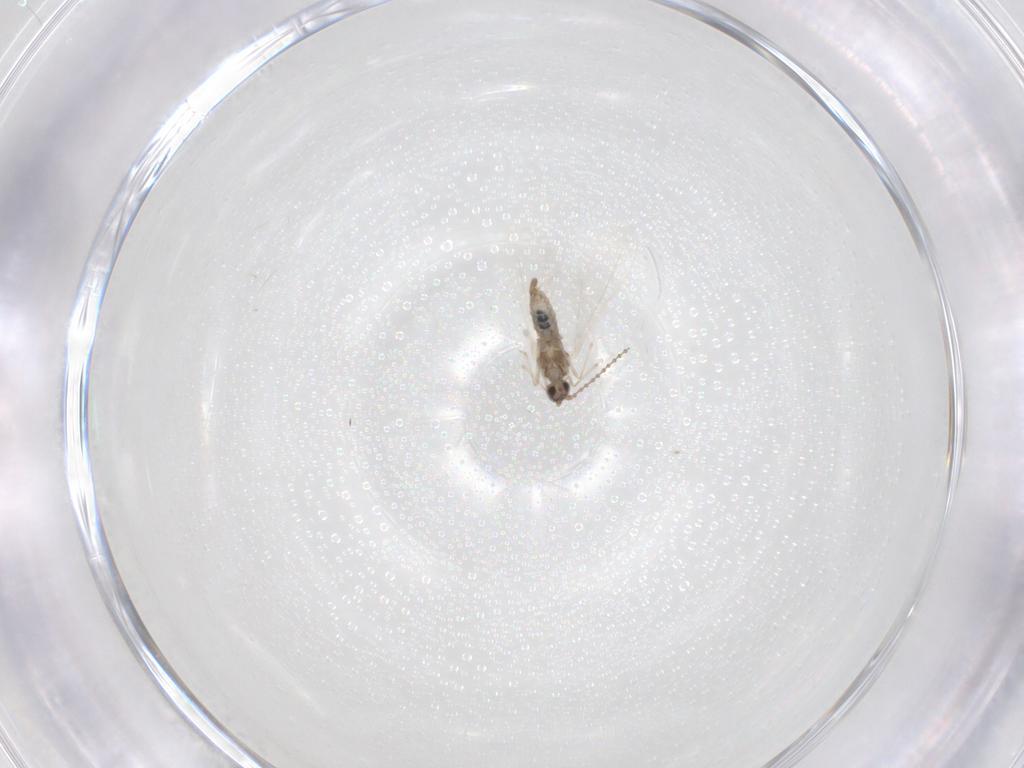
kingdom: Animalia
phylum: Arthropoda
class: Insecta
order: Diptera
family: Cecidomyiidae
